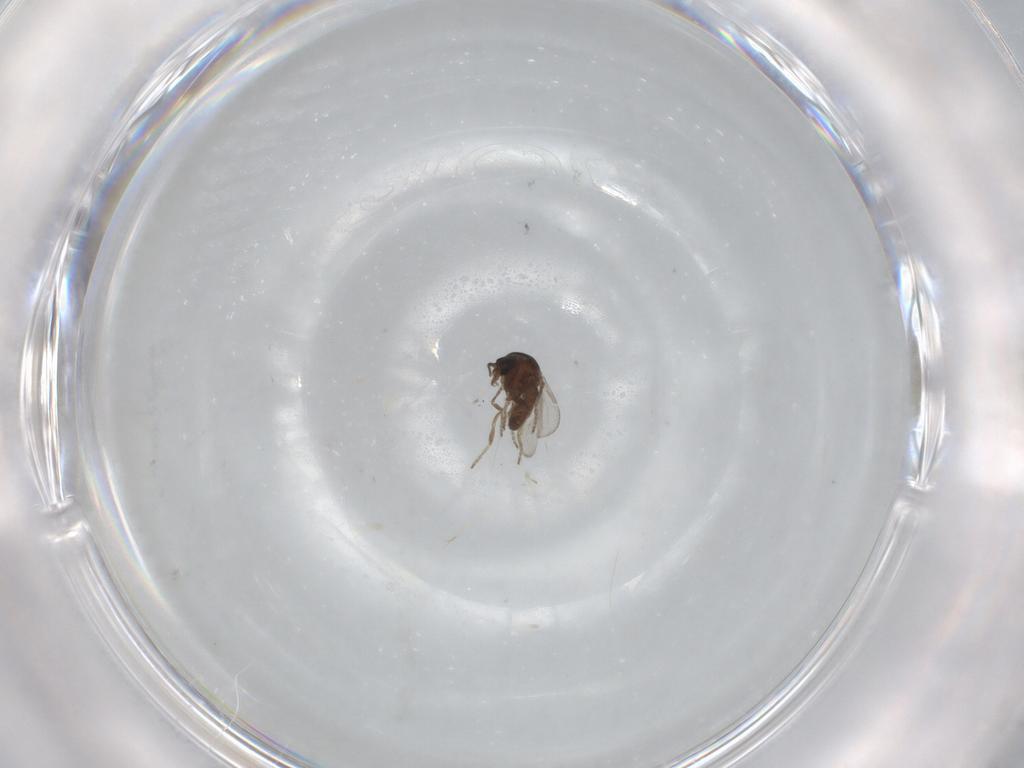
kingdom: Animalia
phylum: Arthropoda
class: Insecta
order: Diptera
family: Ceratopogonidae
